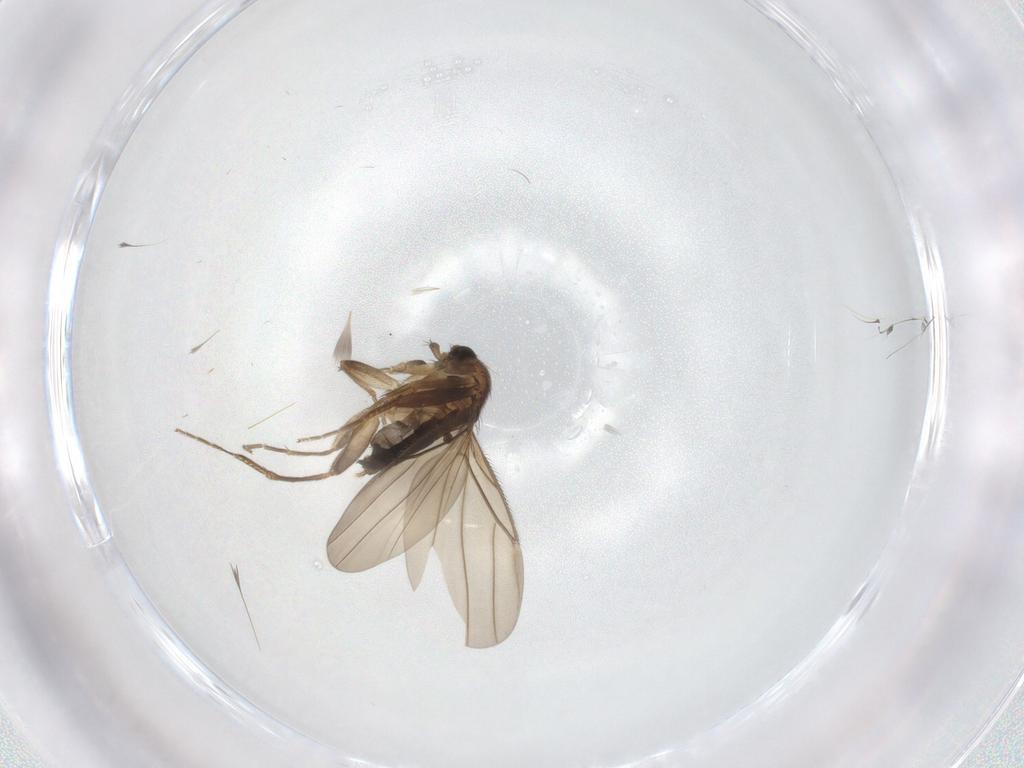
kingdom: Animalia
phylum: Arthropoda
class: Insecta
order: Diptera
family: Phoridae
